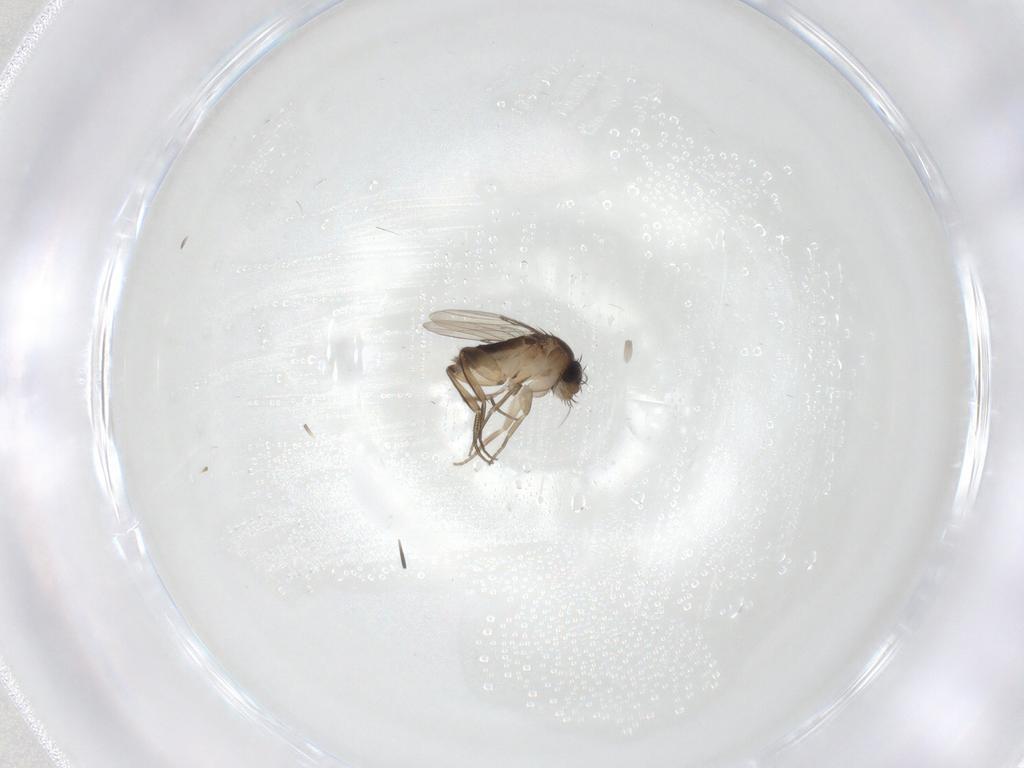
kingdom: Animalia
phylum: Arthropoda
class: Insecta
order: Diptera
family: Phoridae
